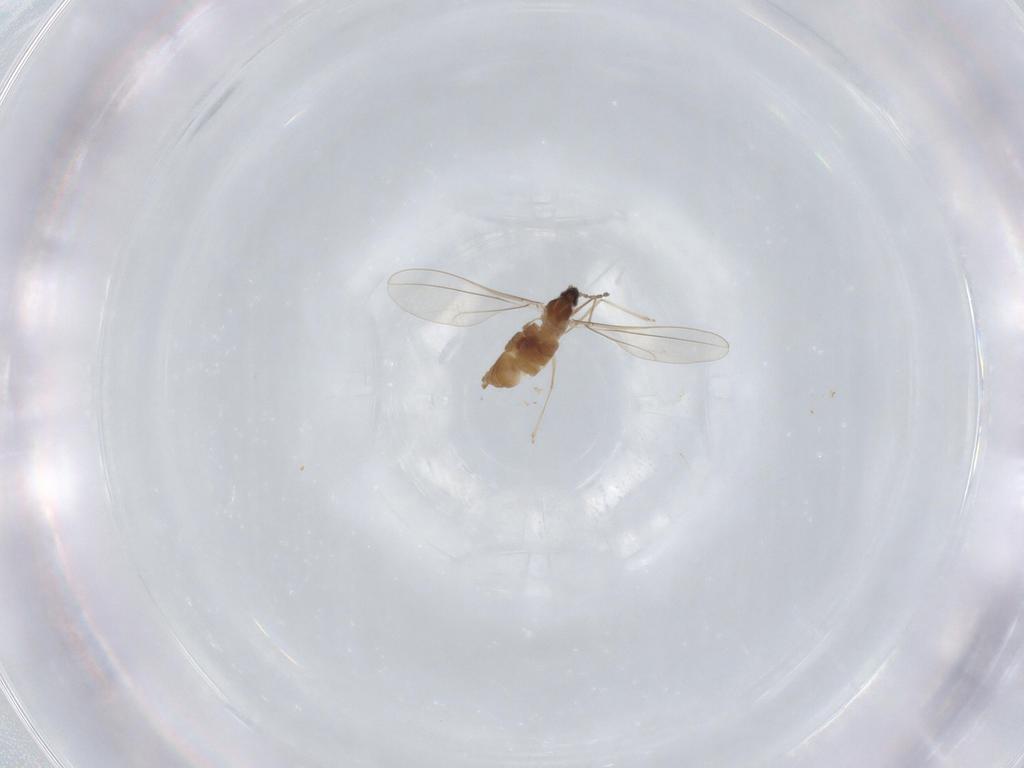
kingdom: Animalia
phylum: Arthropoda
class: Insecta
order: Diptera
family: Cecidomyiidae
